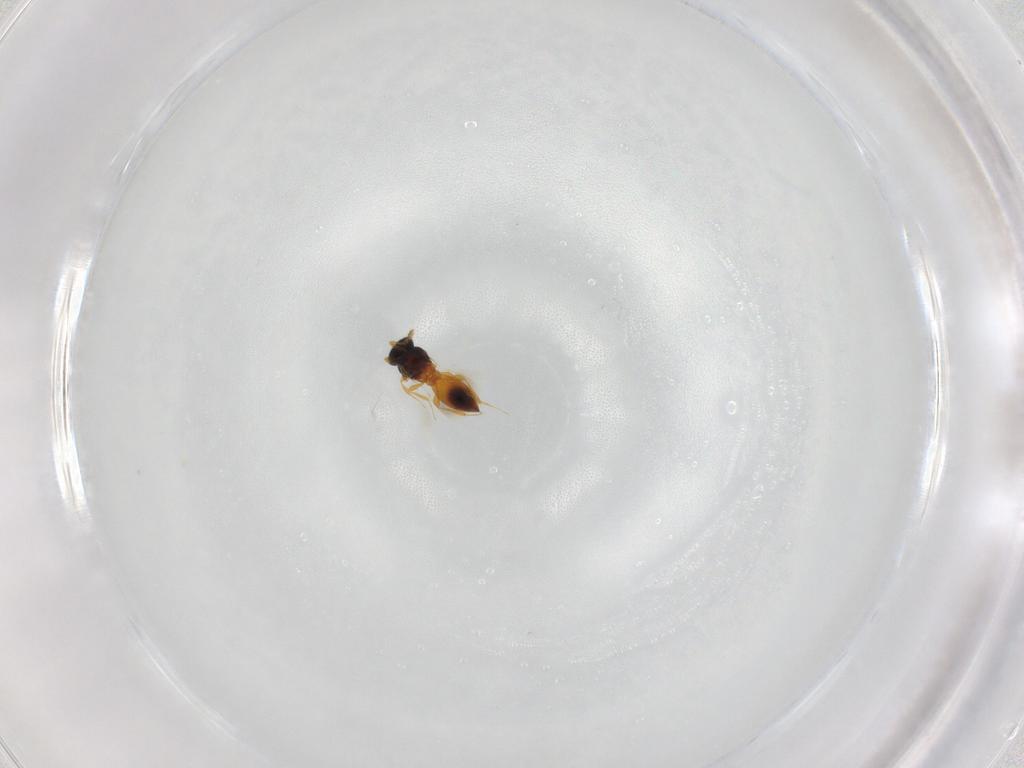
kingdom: Animalia
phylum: Arthropoda
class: Insecta
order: Hymenoptera
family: Platygastridae
